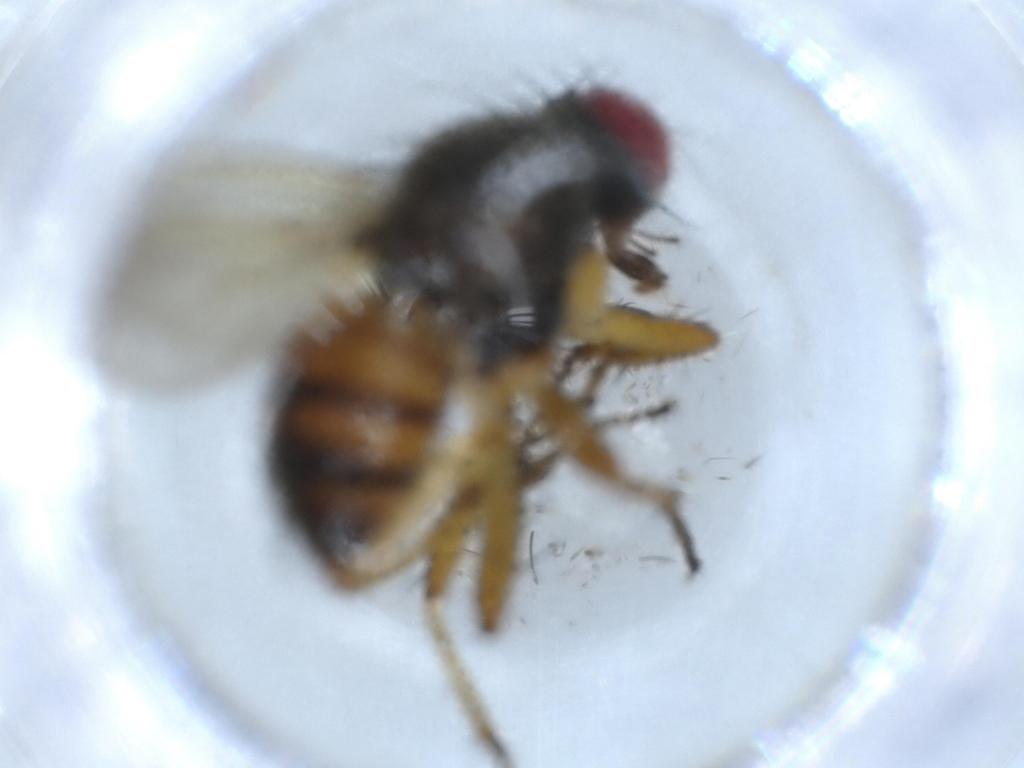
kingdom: Animalia
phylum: Arthropoda
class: Insecta
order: Diptera
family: Muscidae
